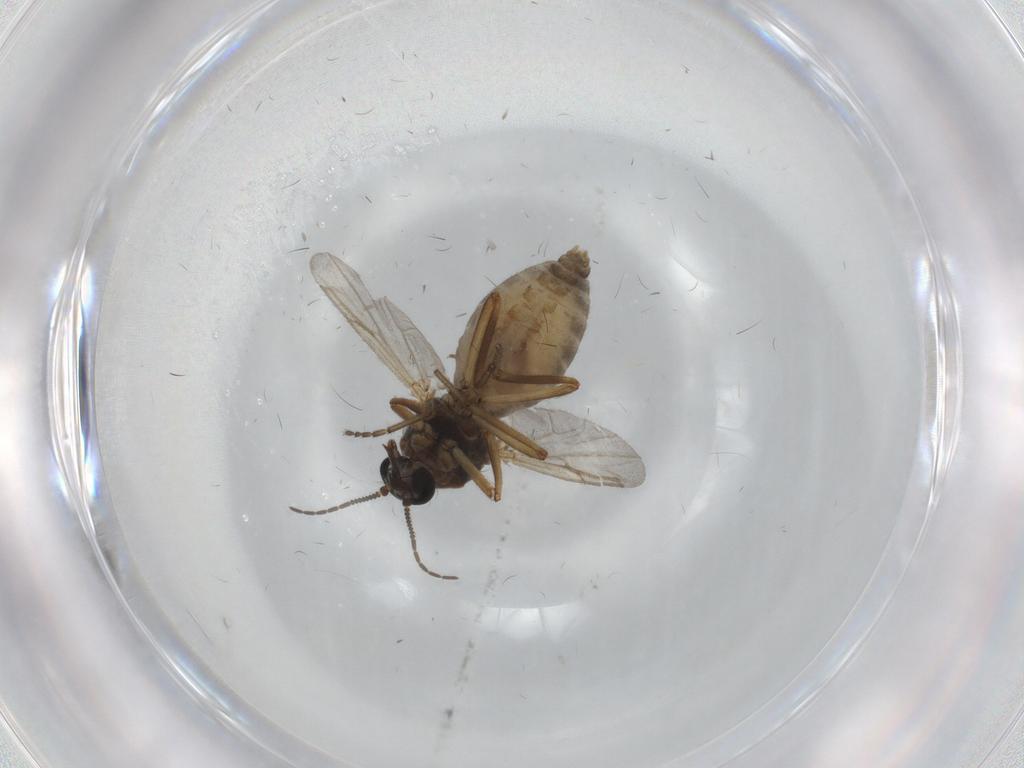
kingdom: Animalia
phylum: Arthropoda
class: Insecta
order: Diptera
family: Ceratopogonidae
